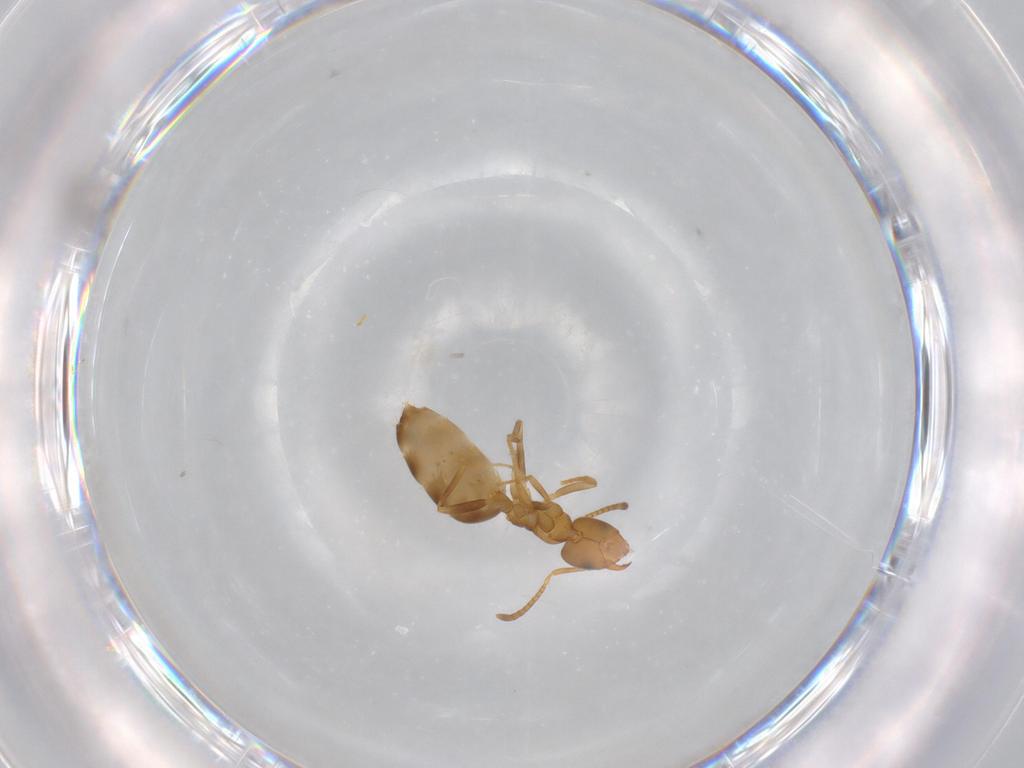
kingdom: Animalia
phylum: Arthropoda
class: Insecta
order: Hymenoptera
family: Trichogrammatidae
